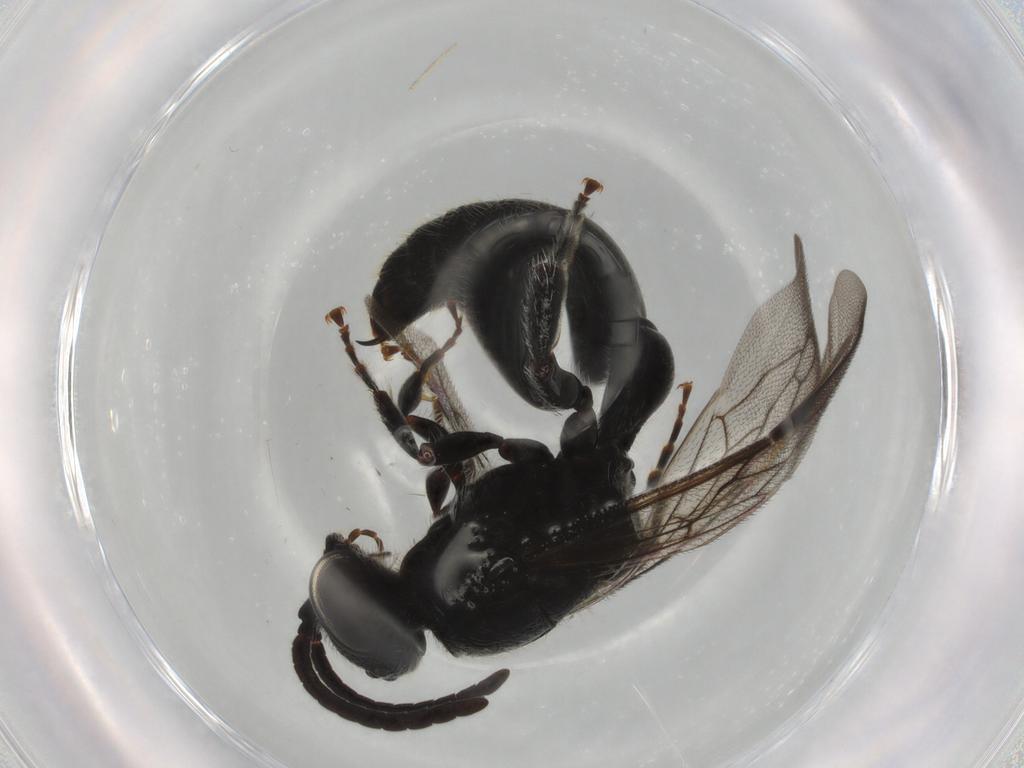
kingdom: Animalia
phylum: Arthropoda
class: Insecta
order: Hymenoptera
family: Tiphiidae
